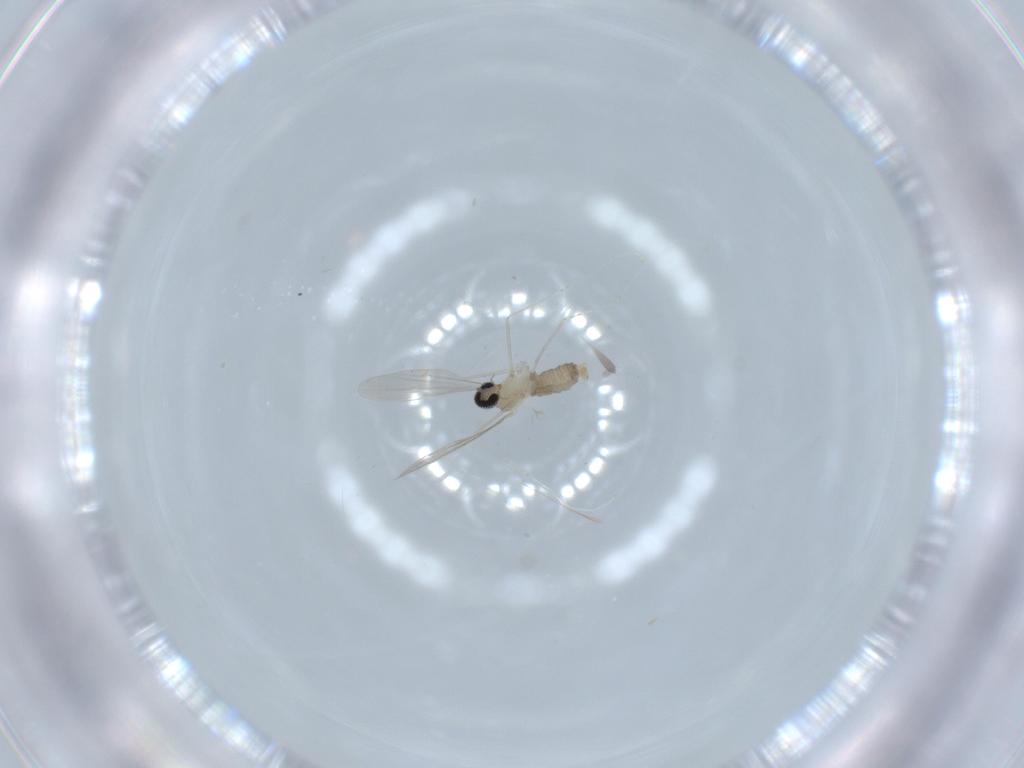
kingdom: Animalia
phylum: Arthropoda
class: Insecta
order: Diptera
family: Cecidomyiidae
